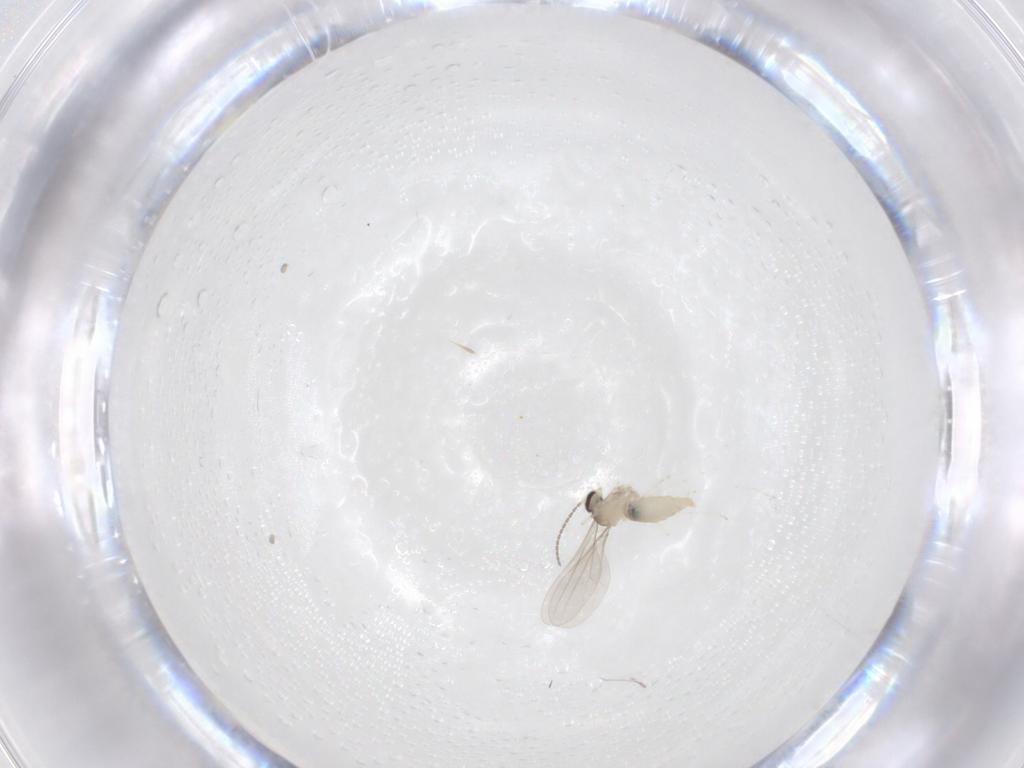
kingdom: Animalia
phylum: Arthropoda
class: Insecta
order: Diptera
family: Cecidomyiidae
